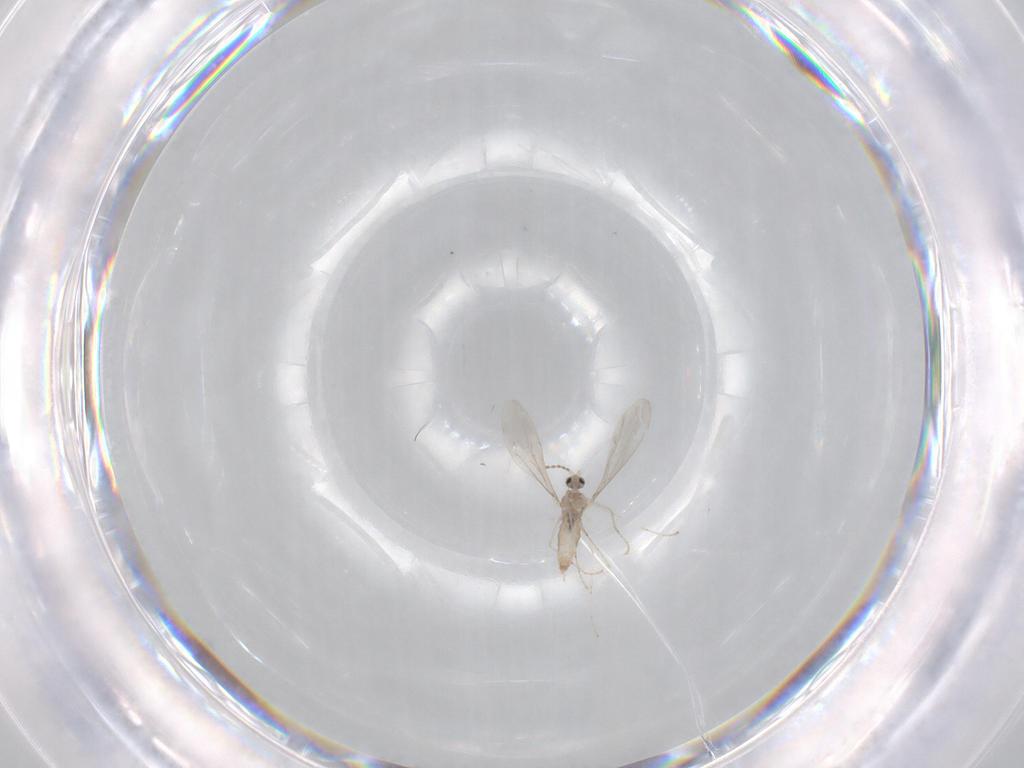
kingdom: Animalia
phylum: Arthropoda
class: Insecta
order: Diptera
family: Cecidomyiidae
